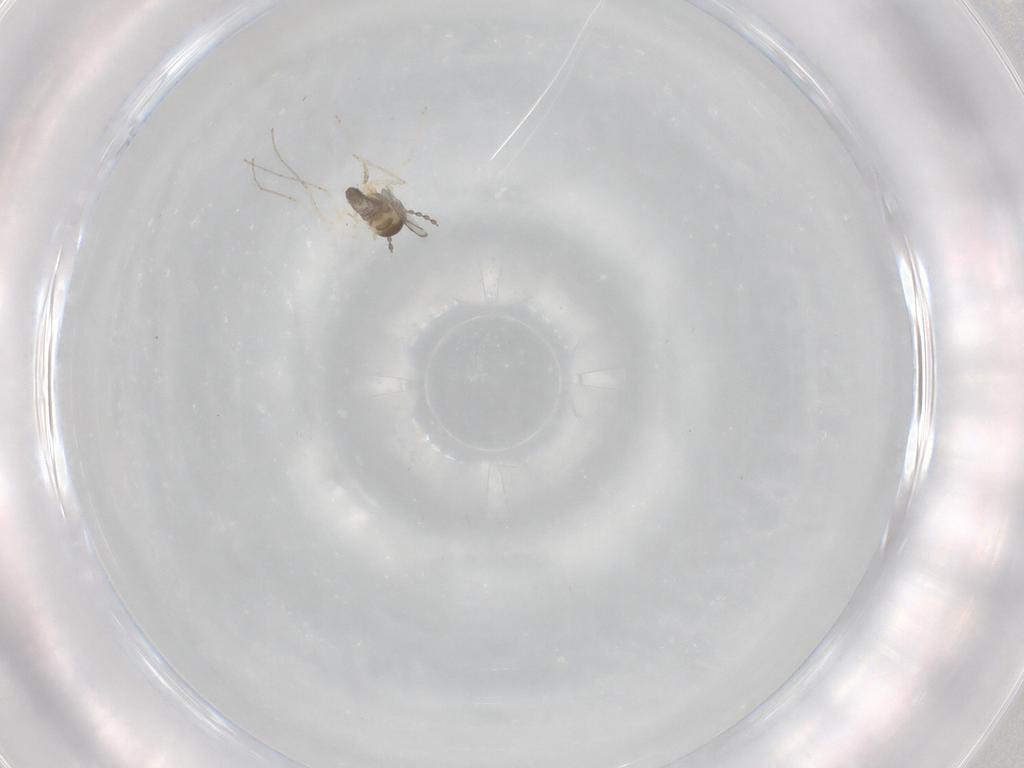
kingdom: Animalia
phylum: Arthropoda
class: Insecta
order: Diptera
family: Cecidomyiidae
